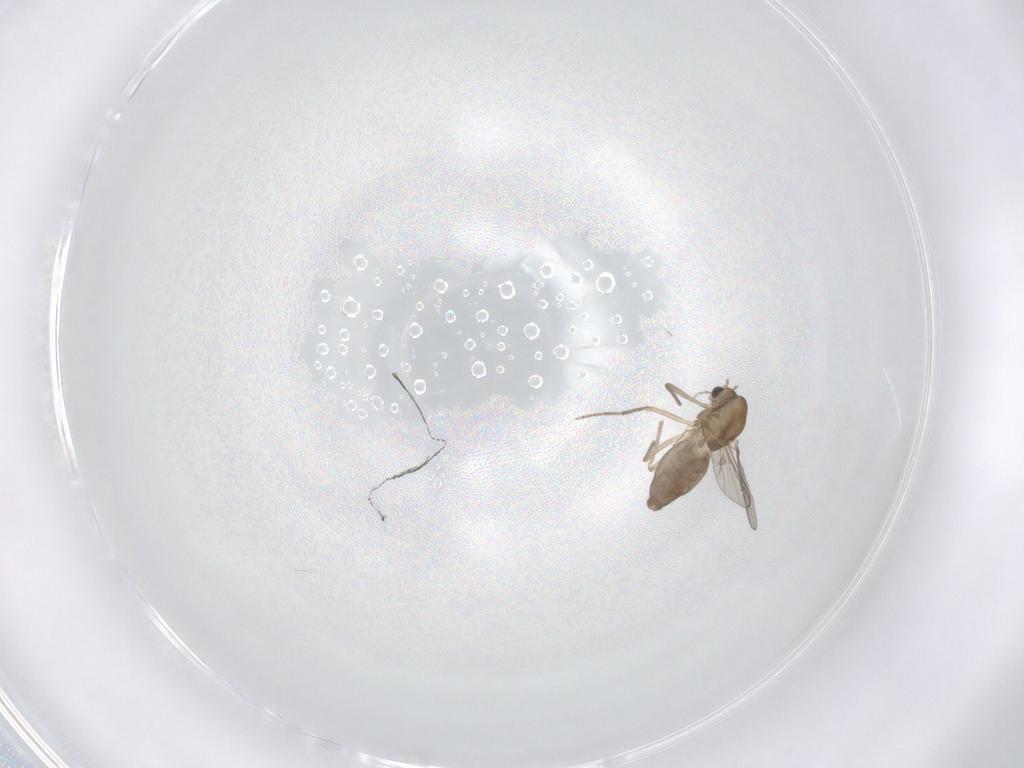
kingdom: Animalia
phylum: Arthropoda
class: Insecta
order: Diptera
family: Chironomidae
